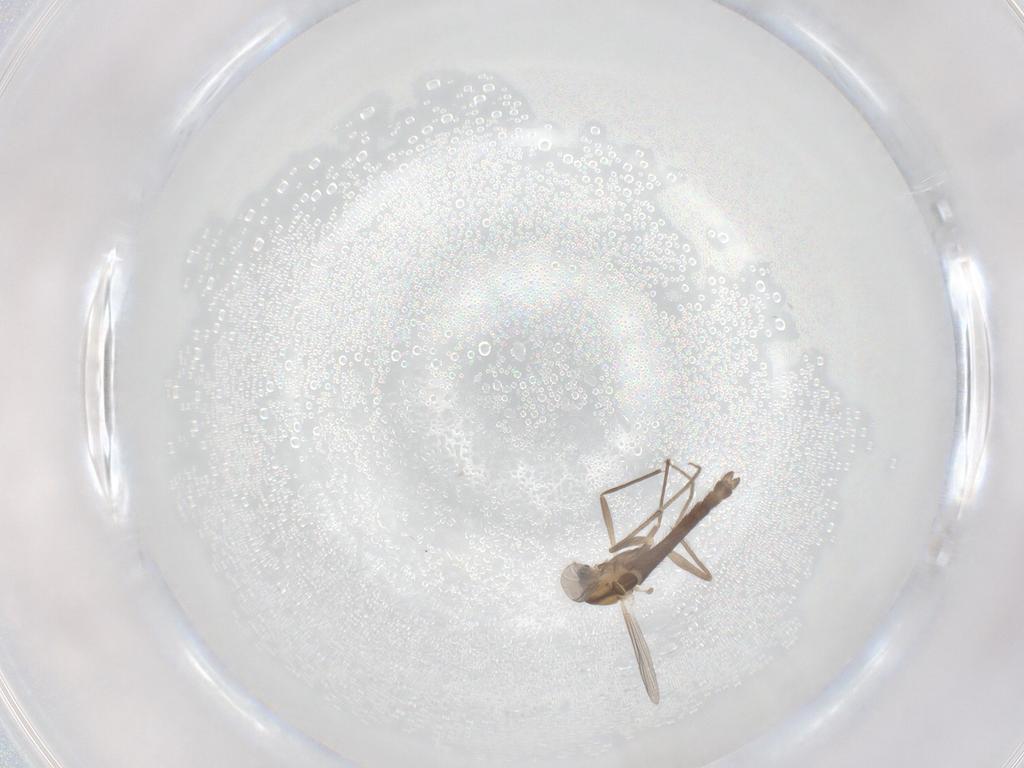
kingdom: Animalia
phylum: Arthropoda
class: Insecta
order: Diptera
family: Chironomidae
